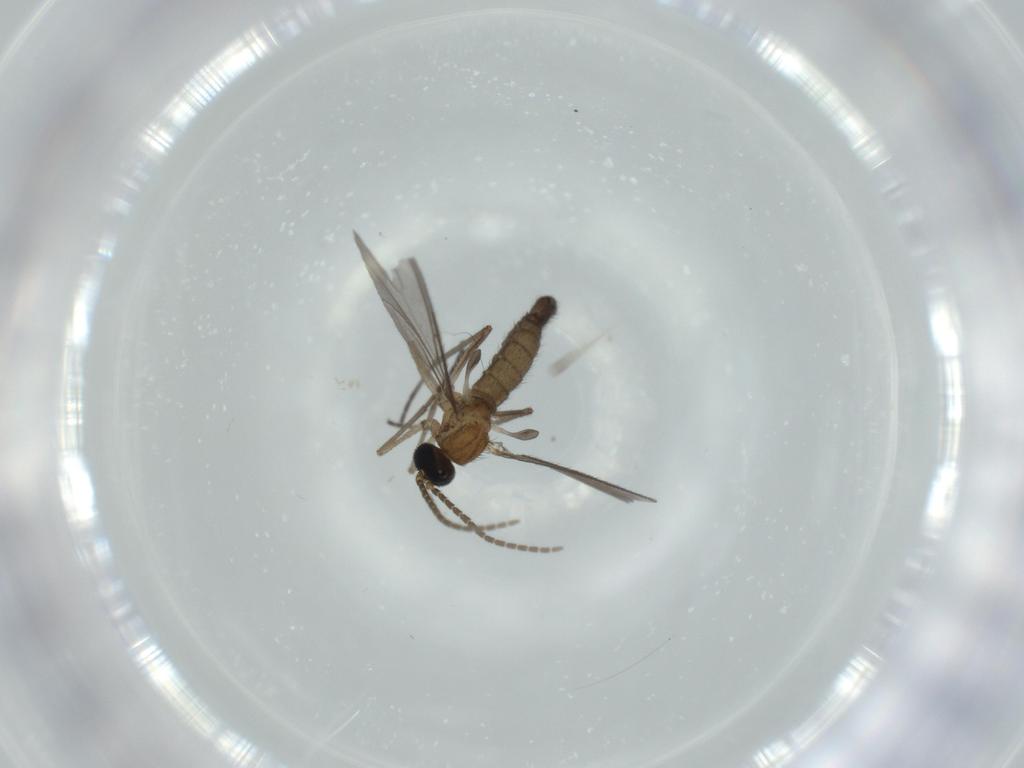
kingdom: Animalia
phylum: Arthropoda
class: Insecta
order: Diptera
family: Sciaridae
